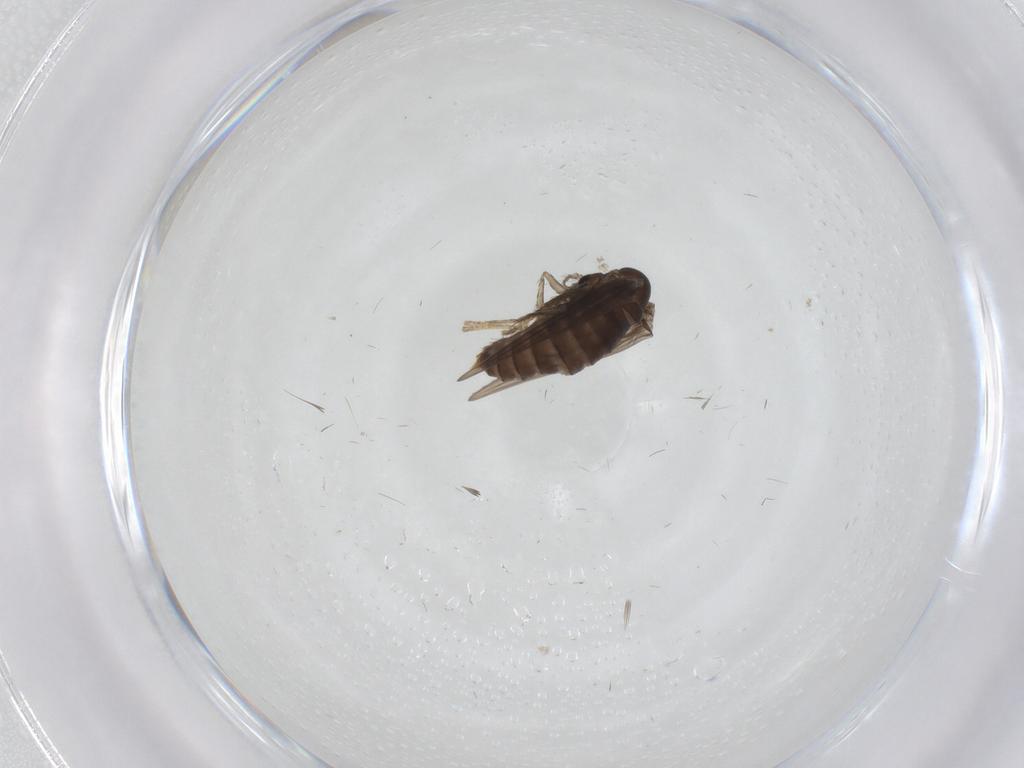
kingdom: Animalia
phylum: Arthropoda
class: Insecta
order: Diptera
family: Psychodidae
